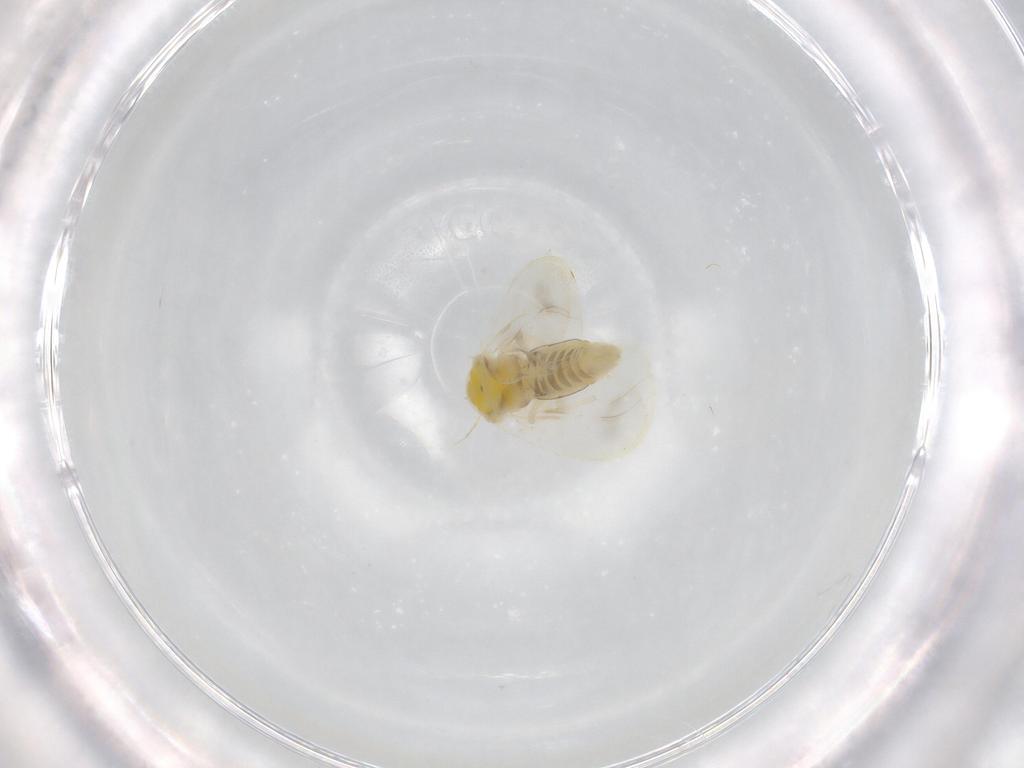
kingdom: Animalia
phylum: Arthropoda
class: Insecta
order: Hemiptera
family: Aleyrodidae
